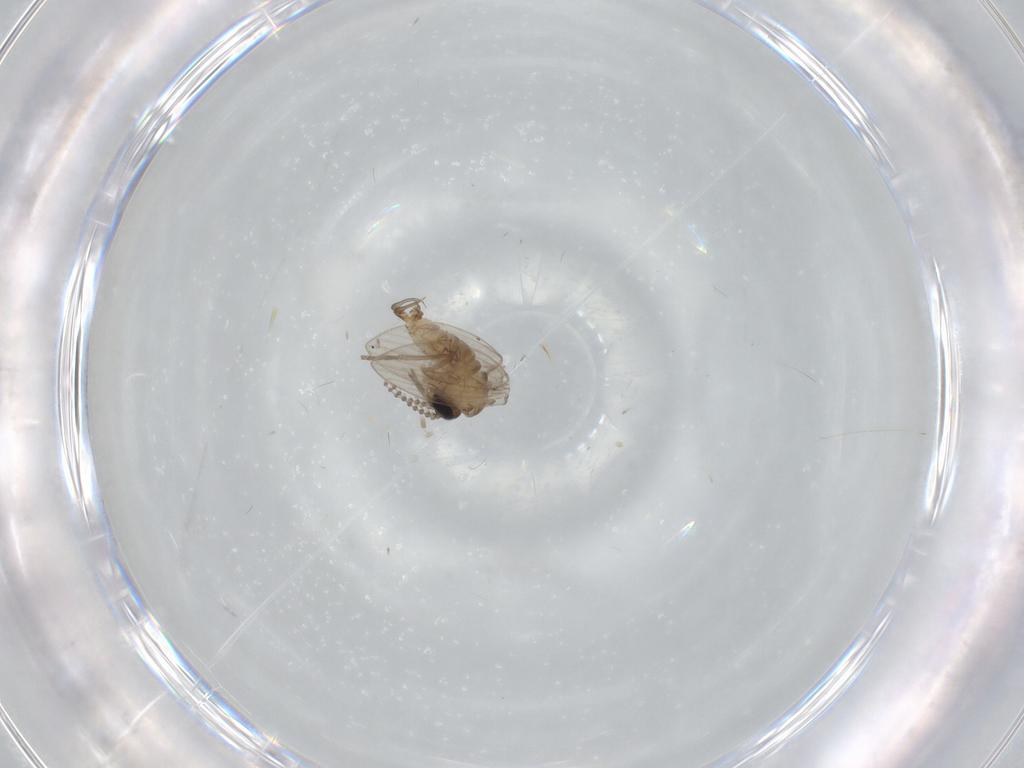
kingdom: Animalia
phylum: Arthropoda
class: Insecta
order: Diptera
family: Psychodidae
